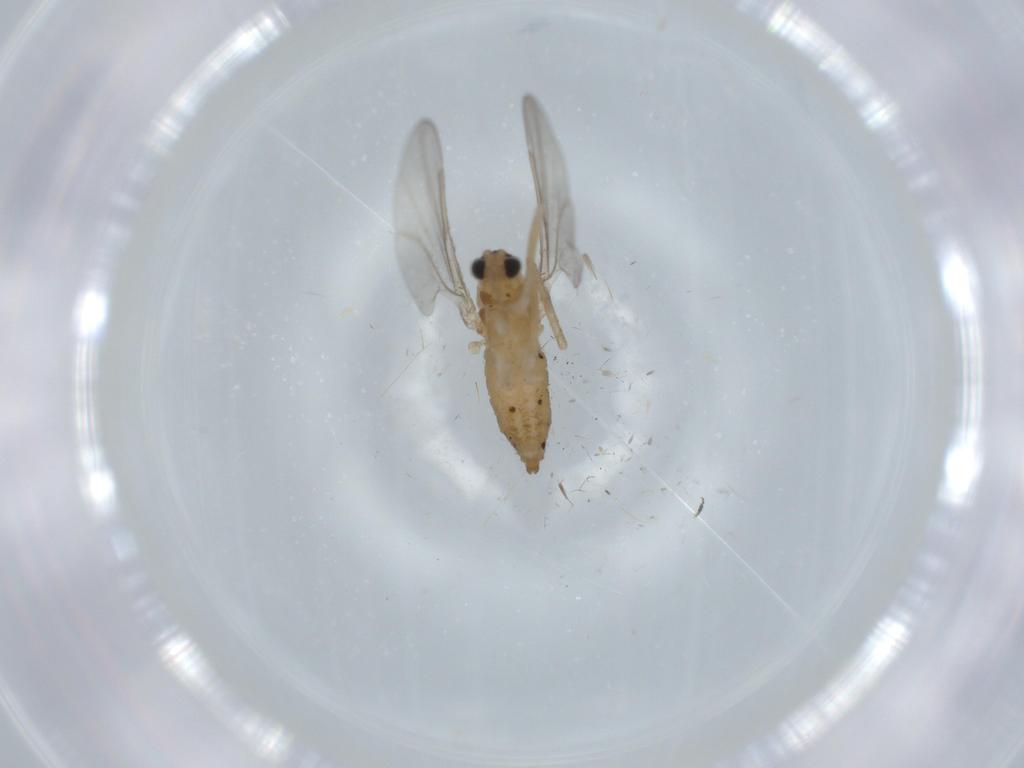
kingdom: Animalia
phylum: Arthropoda
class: Insecta
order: Diptera
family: Cecidomyiidae
